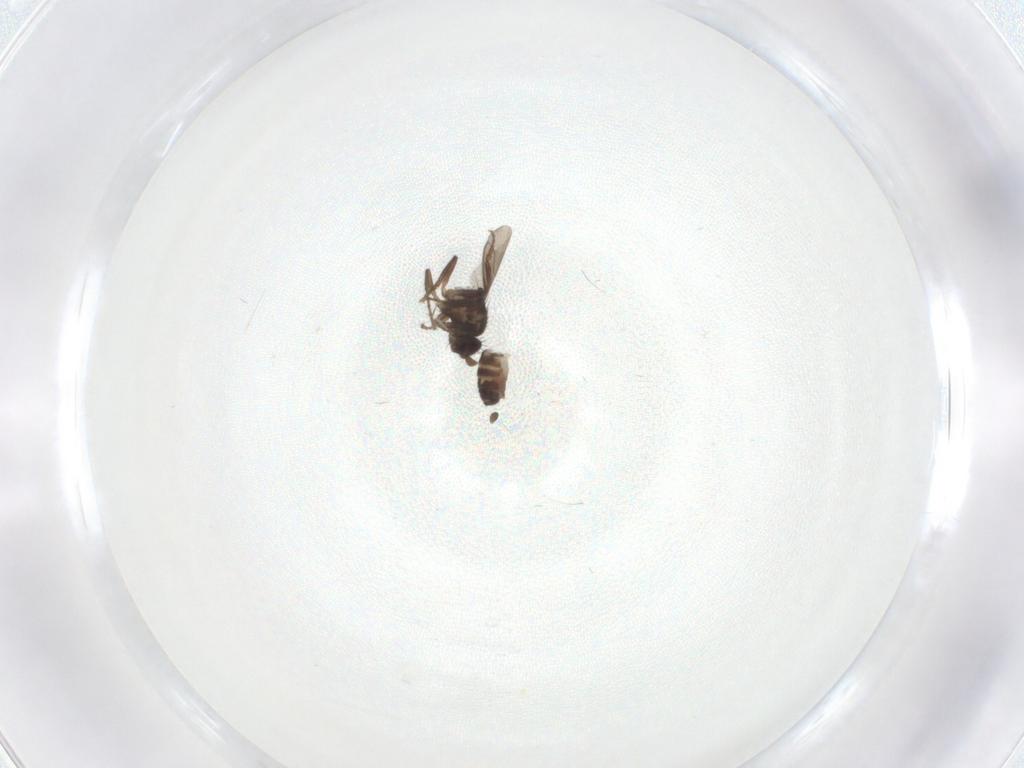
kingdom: Animalia
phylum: Arthropoda
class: Insecta
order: Diptera
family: Sphaeroceridae
